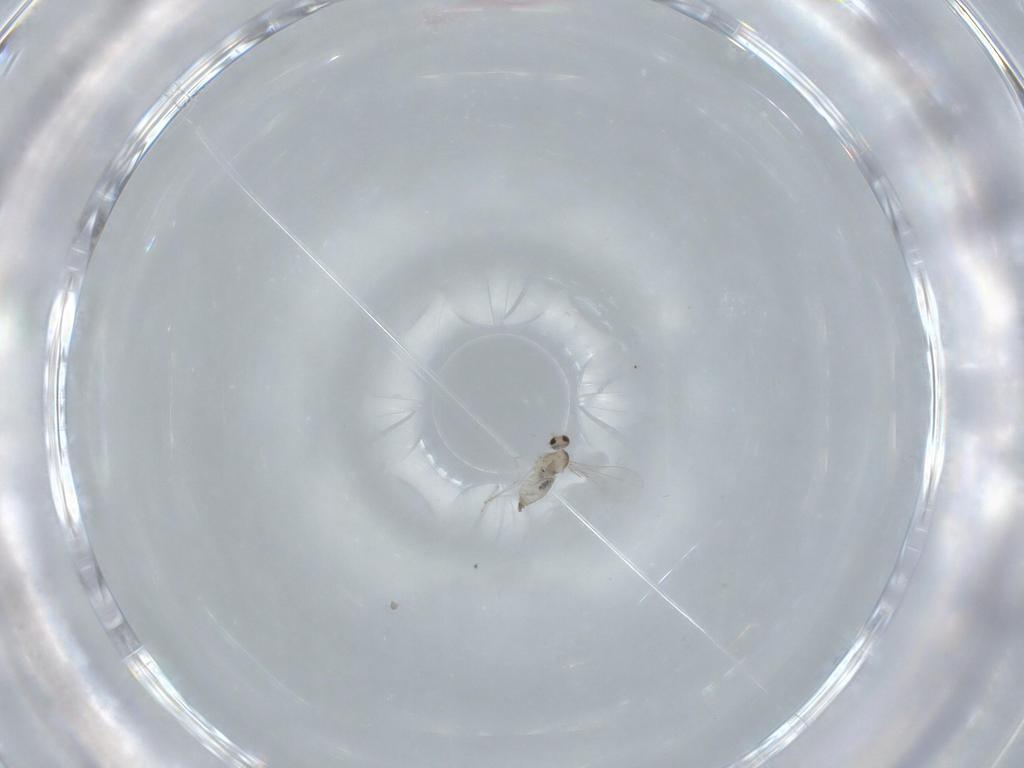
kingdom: Animalia
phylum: Arthropoda
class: Insecta
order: Diptera
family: Cecidomyiidae
